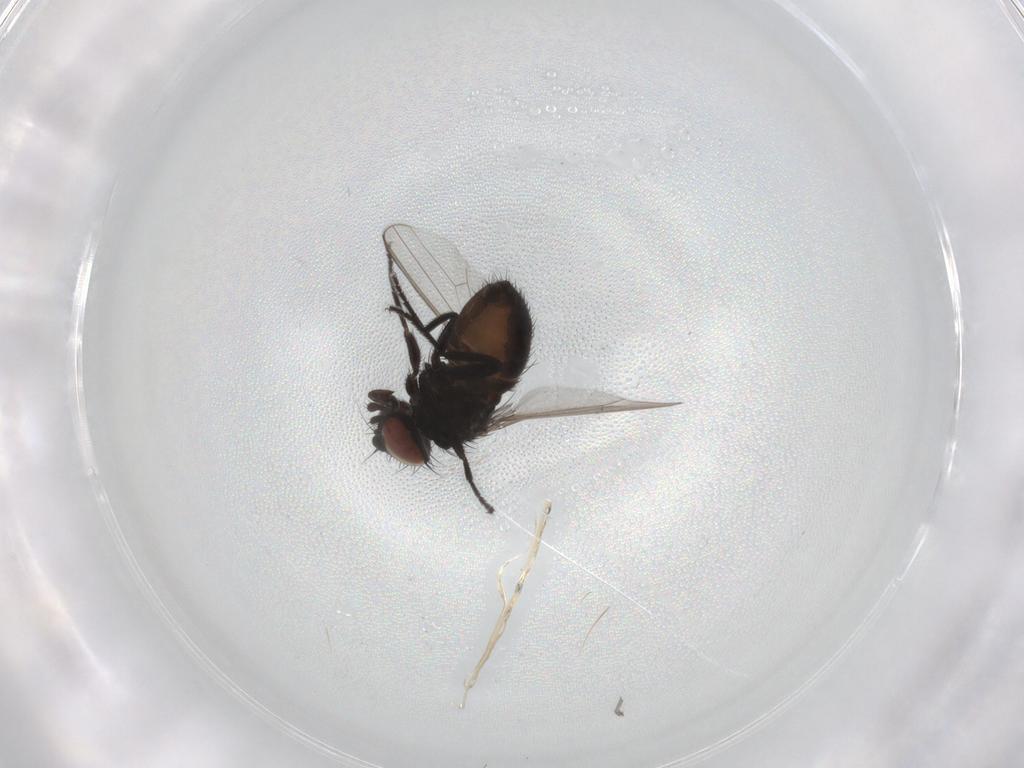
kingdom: Animalia
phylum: Arthropoda
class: Insecta
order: Diptera
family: Milichiidae
